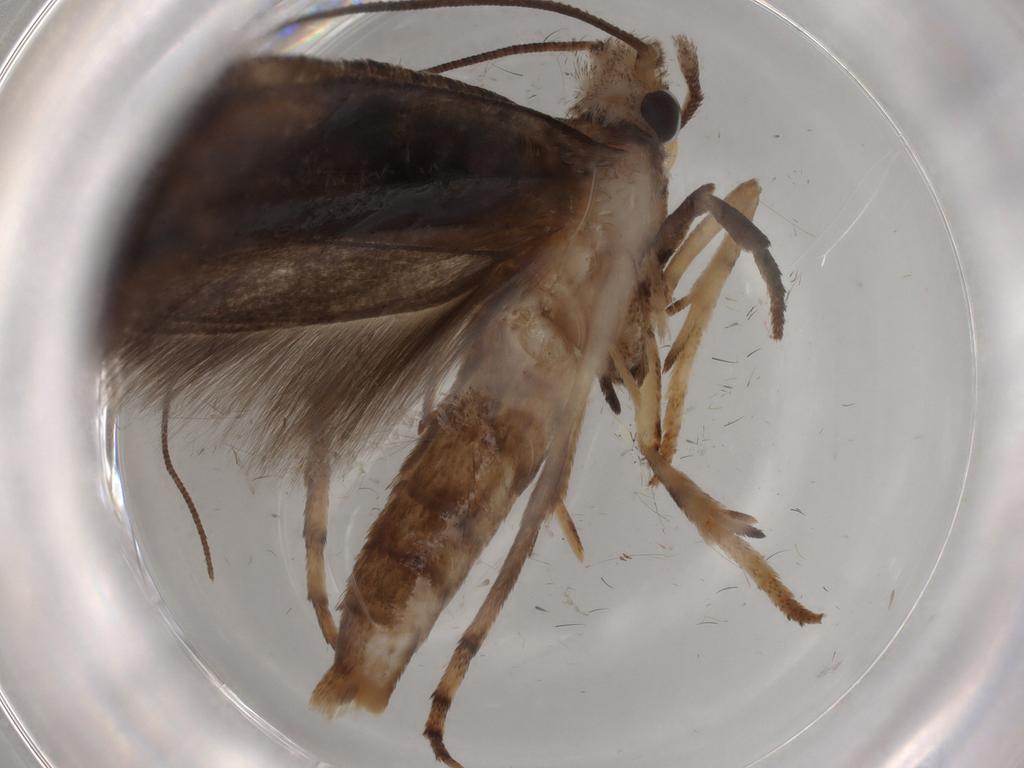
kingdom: Animalia
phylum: Arthropoda
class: Insecta
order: Lepidoptera
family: Yponomeutidae
